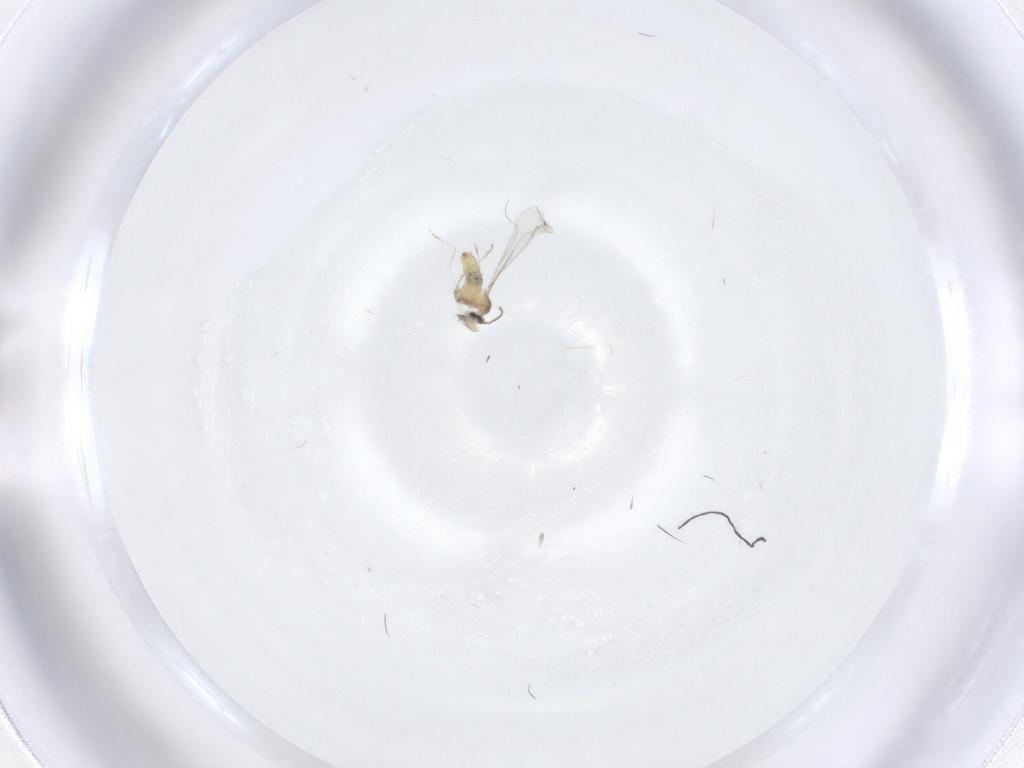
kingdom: Animalia
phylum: Arthropoda
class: Insecta
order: Diptera
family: Cecidomyiidae
